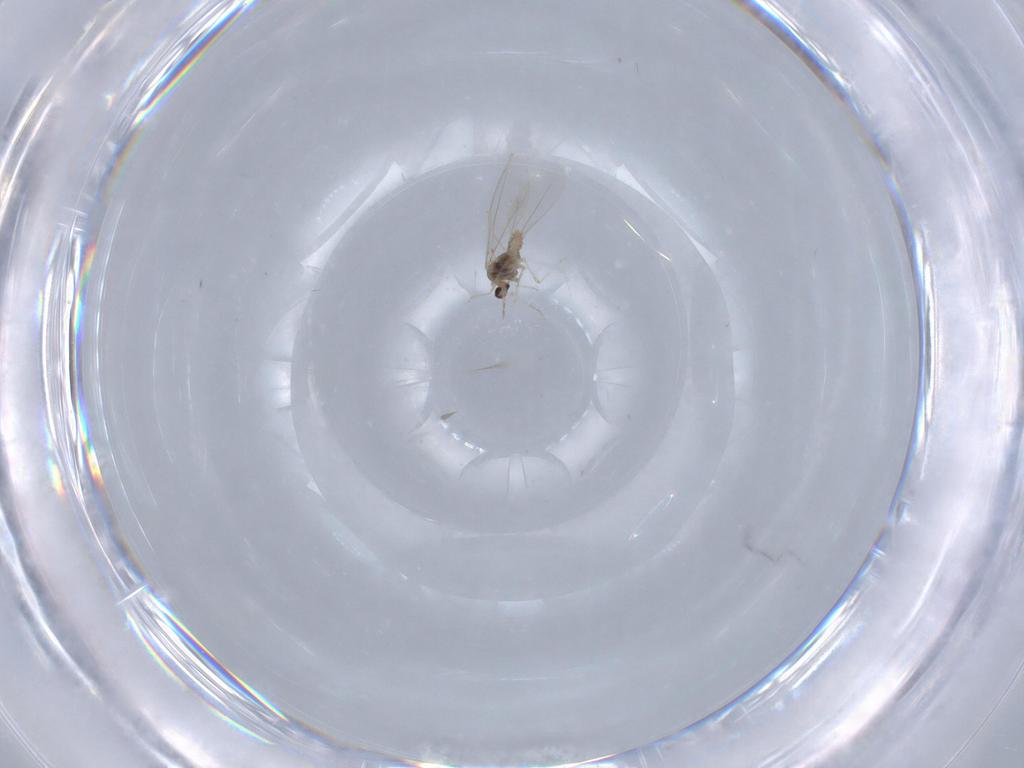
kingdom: Animalia
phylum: Arthropoda
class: Insecta
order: Diptera
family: Cecidomyiidae
